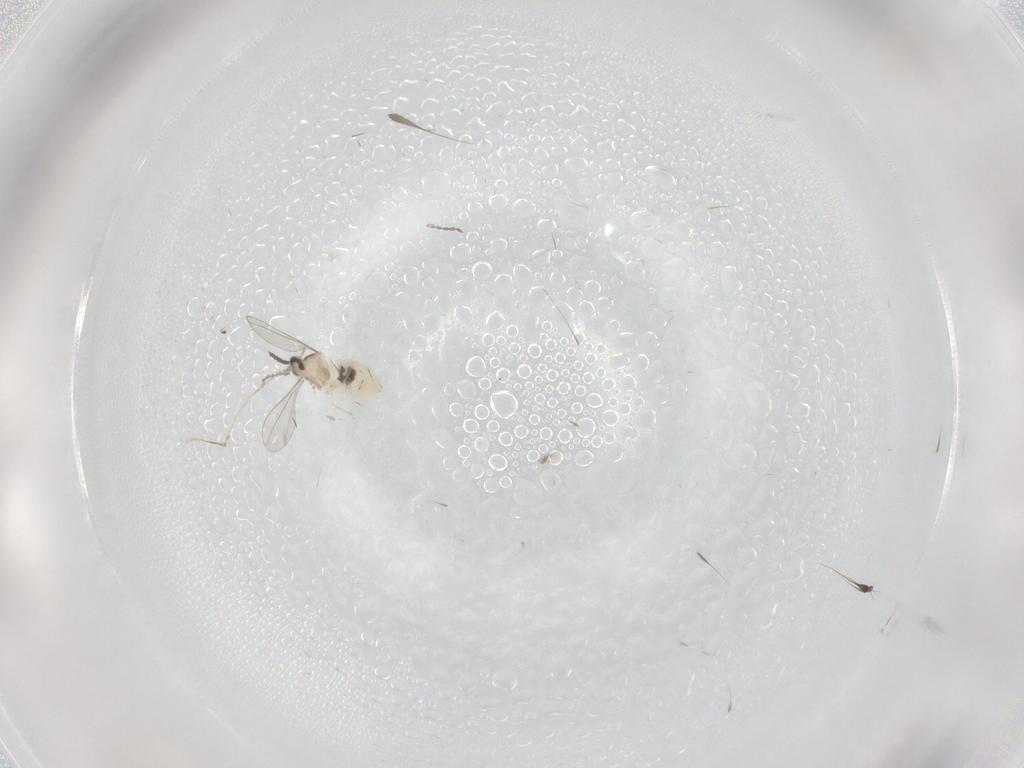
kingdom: Animalia
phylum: Arthropoda
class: Insecta
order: Diptera
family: Cecidomyiidae
